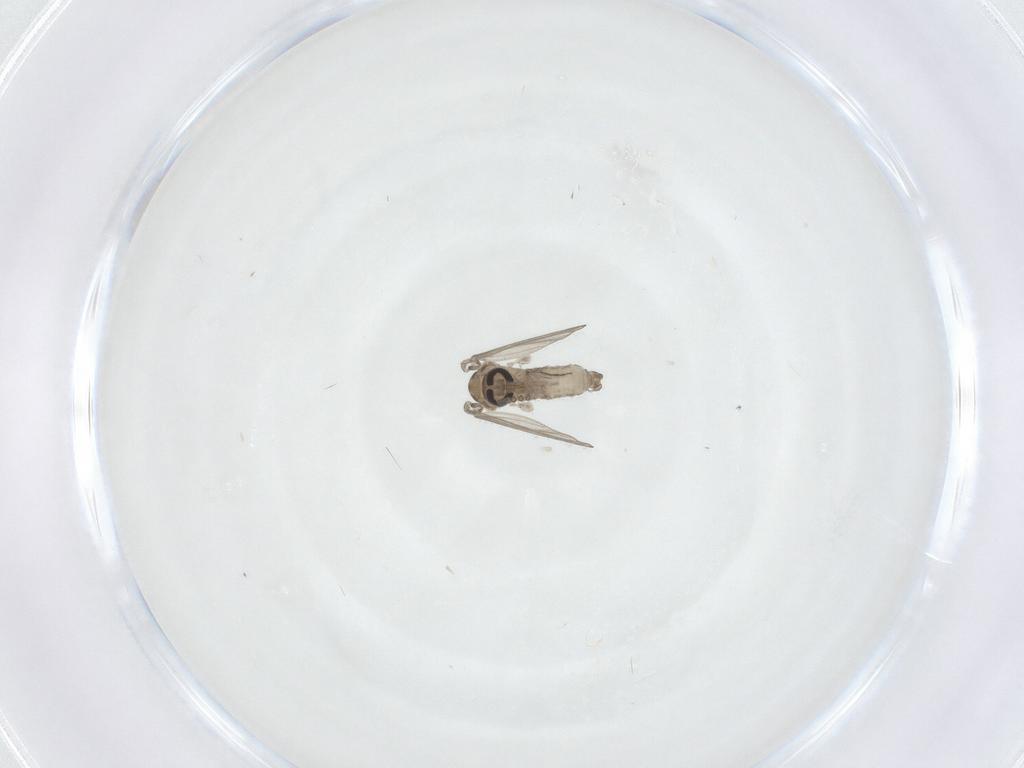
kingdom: Animalia
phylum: Arthropoda
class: Insecta
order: Diptera
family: Psychodidae
